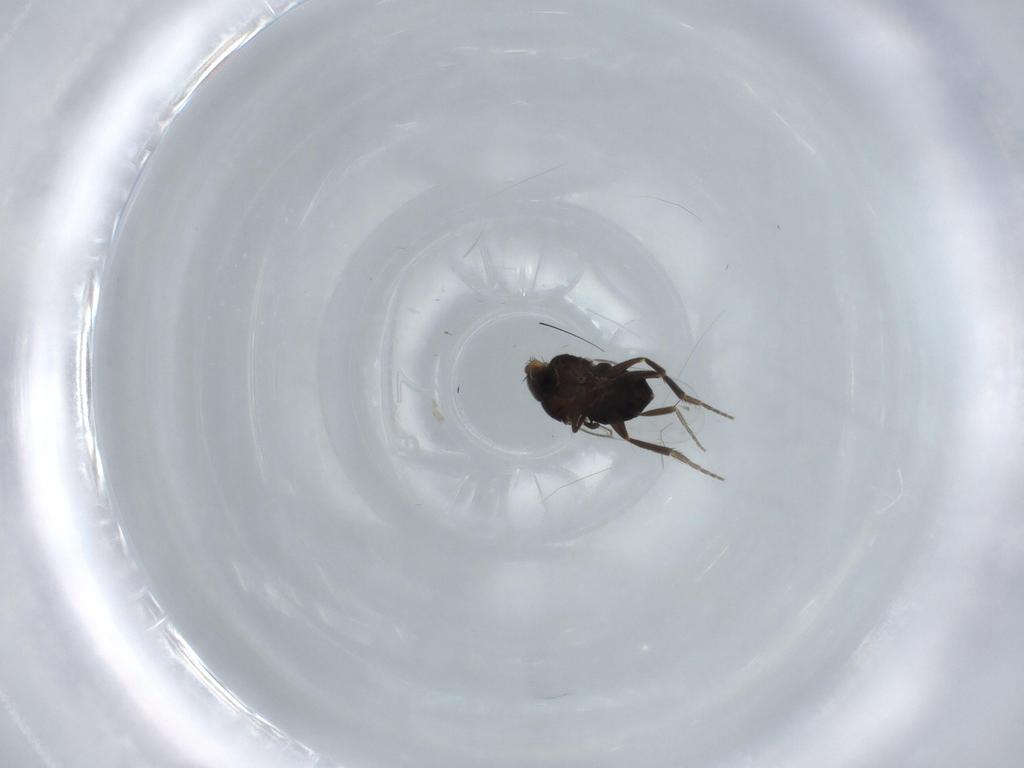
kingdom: Animalia
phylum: Arthropoda
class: Insecta
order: Diptera
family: Phoridae
